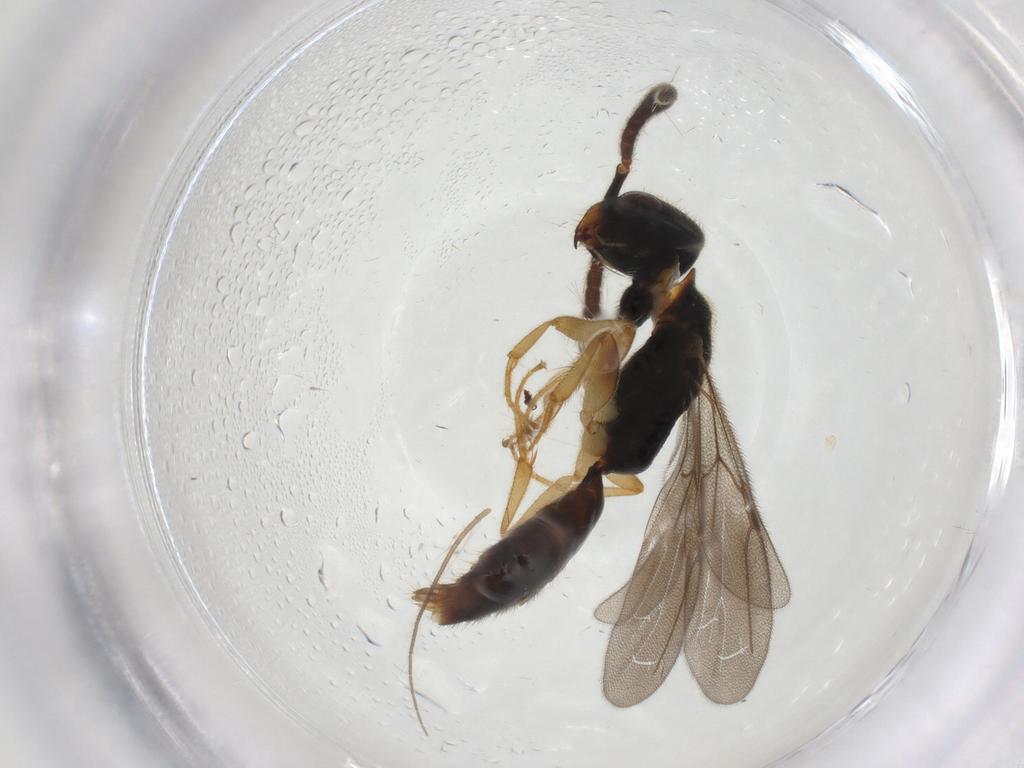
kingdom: Animalia
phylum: Arthropoda
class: Insecta
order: Hymenoptera
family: Bethylidae
